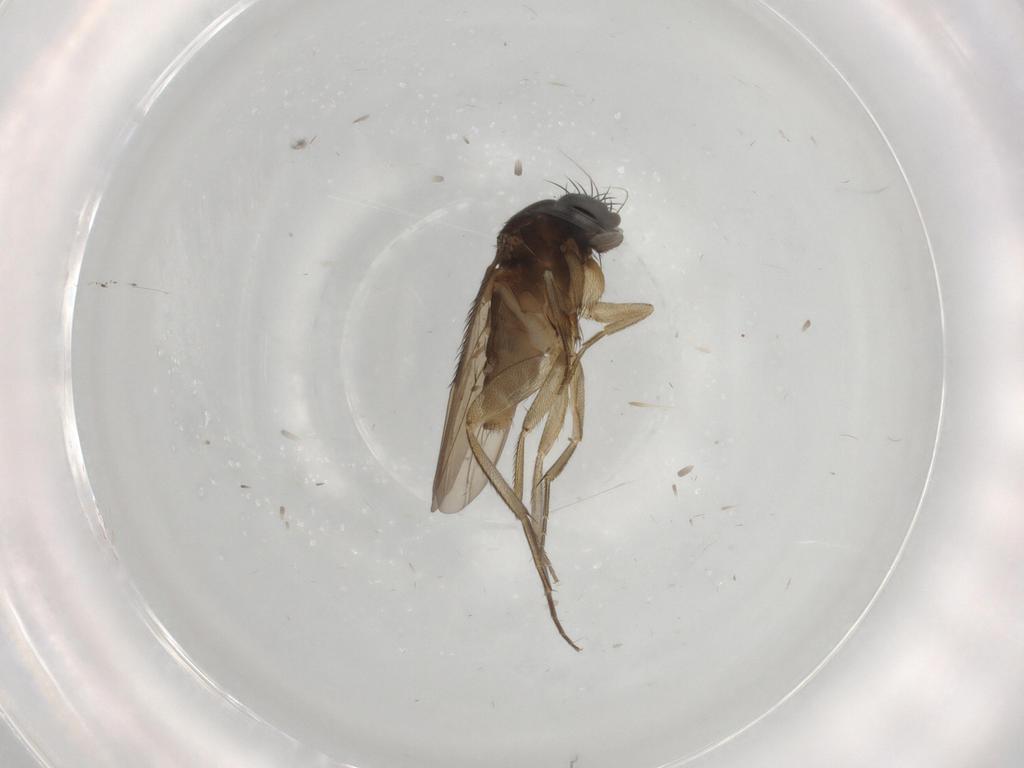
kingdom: Animalia
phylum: Arthropoda
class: Insecta
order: Diptera
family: Phoridae
